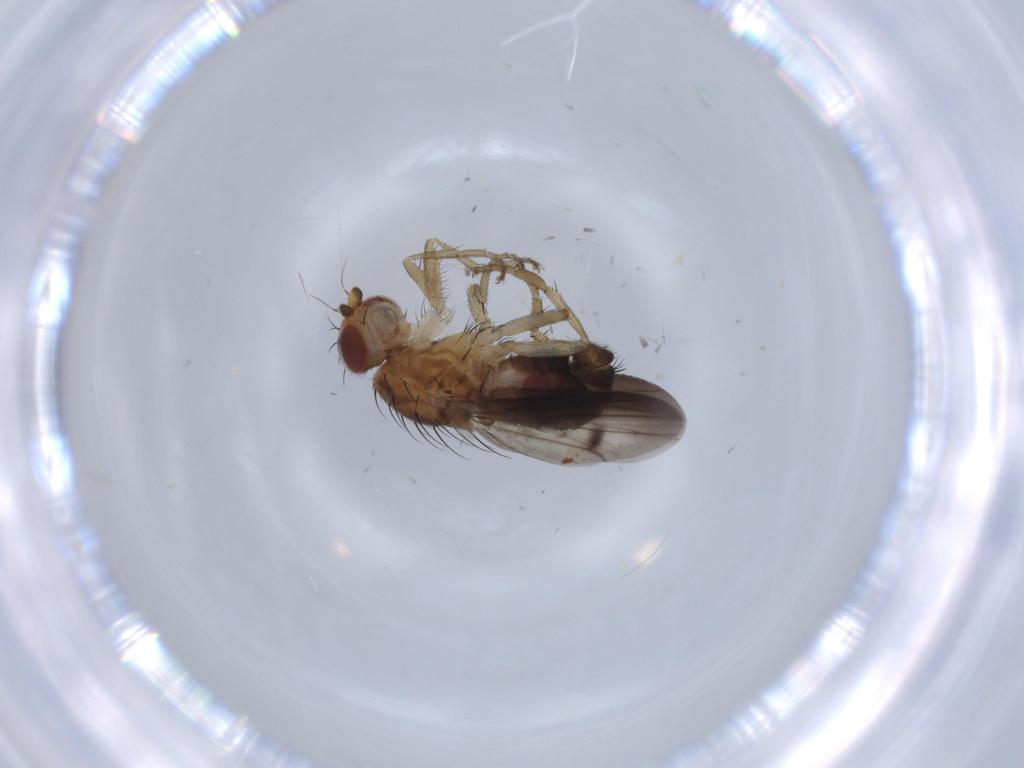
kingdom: Animalia
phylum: Arthropoda
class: Insecta
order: Diptera
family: Heleomyzidae
